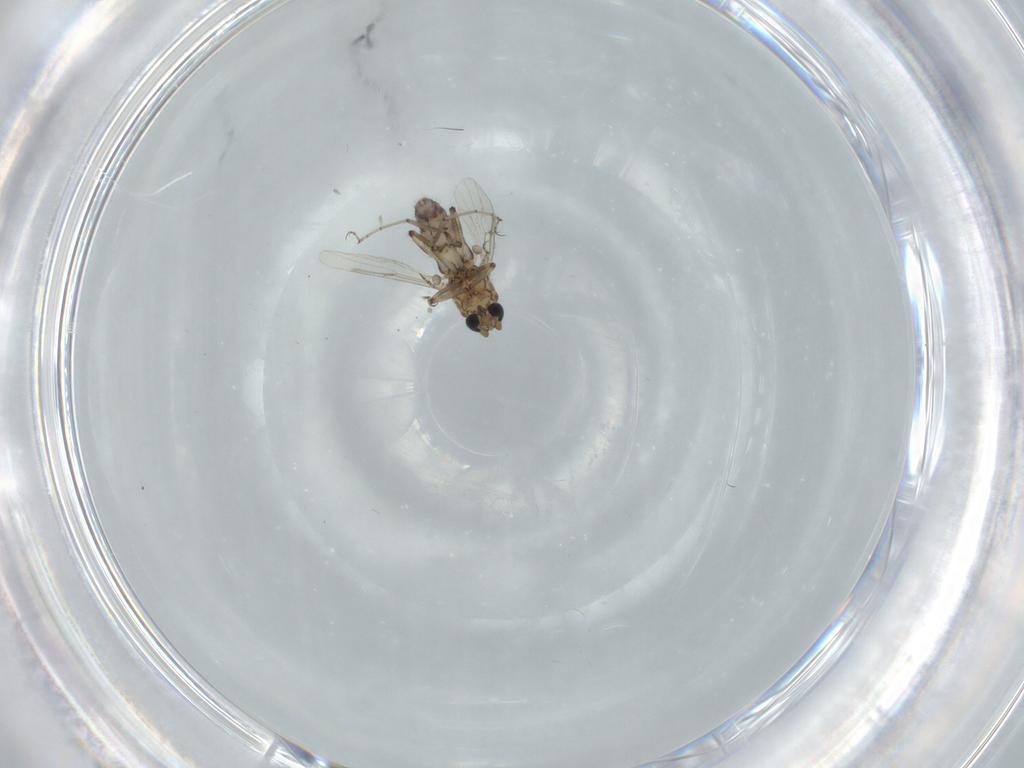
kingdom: Animalia
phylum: Arthropoda
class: Insecta
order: Diptera
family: Ceratopogonidae
